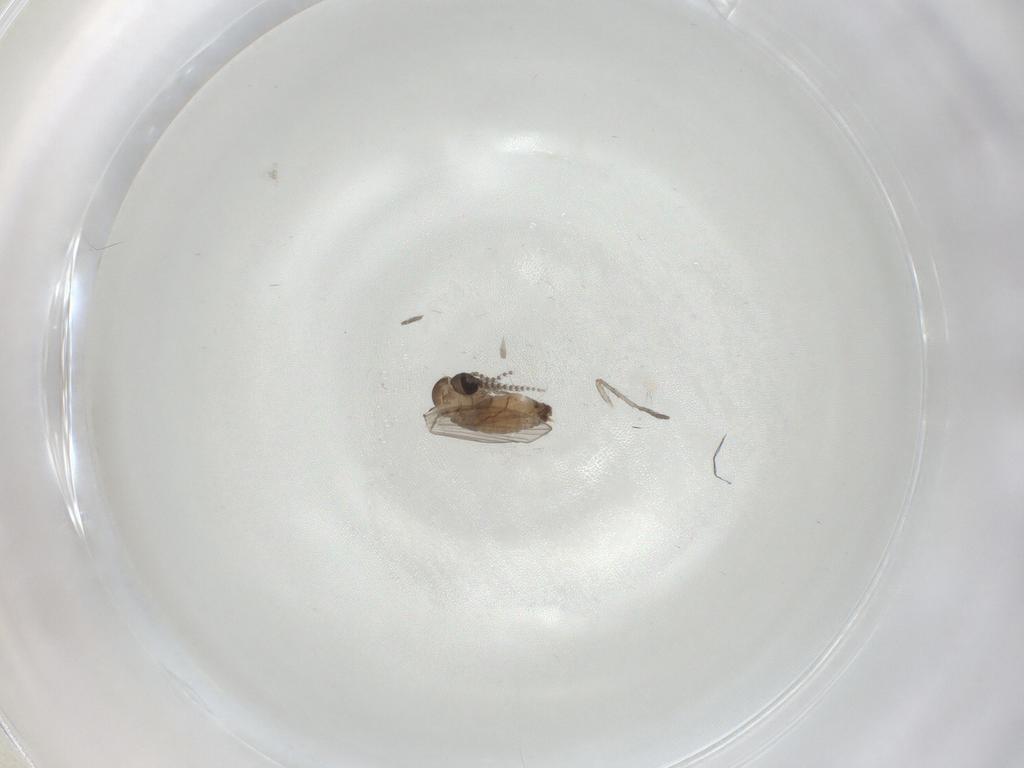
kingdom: Animalia
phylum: Arthropoda
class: Insecta
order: Diptera
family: Psychodidae
